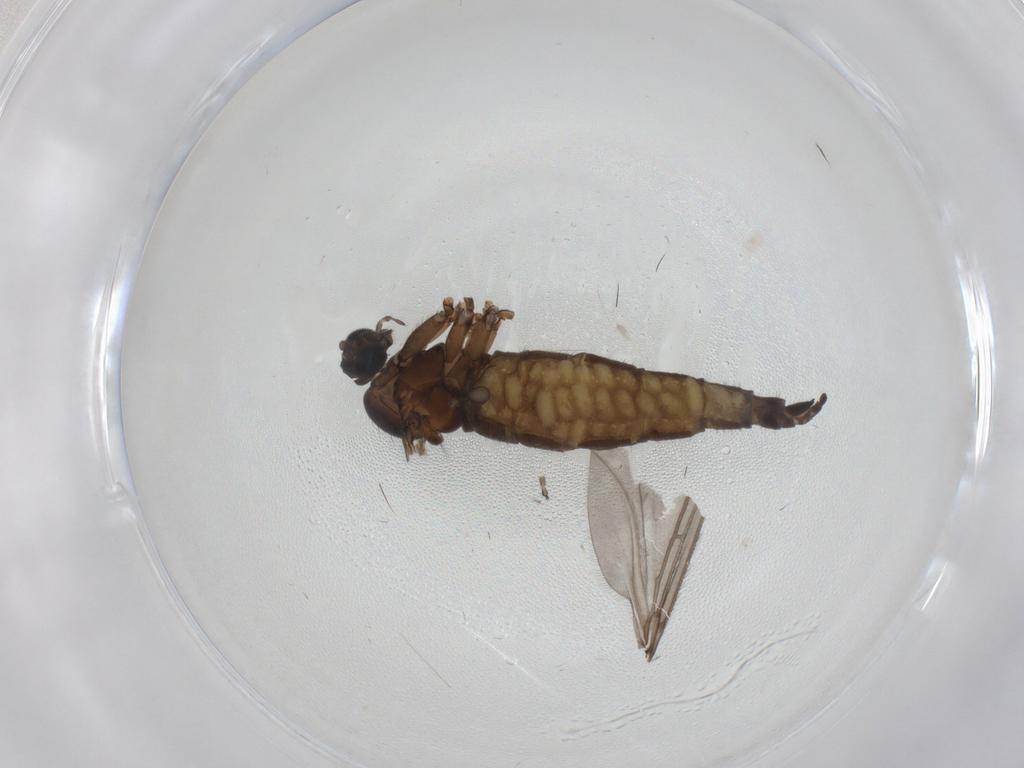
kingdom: Animalia
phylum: Arthropoda
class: Insecta
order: Diptera
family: Sciaridae
